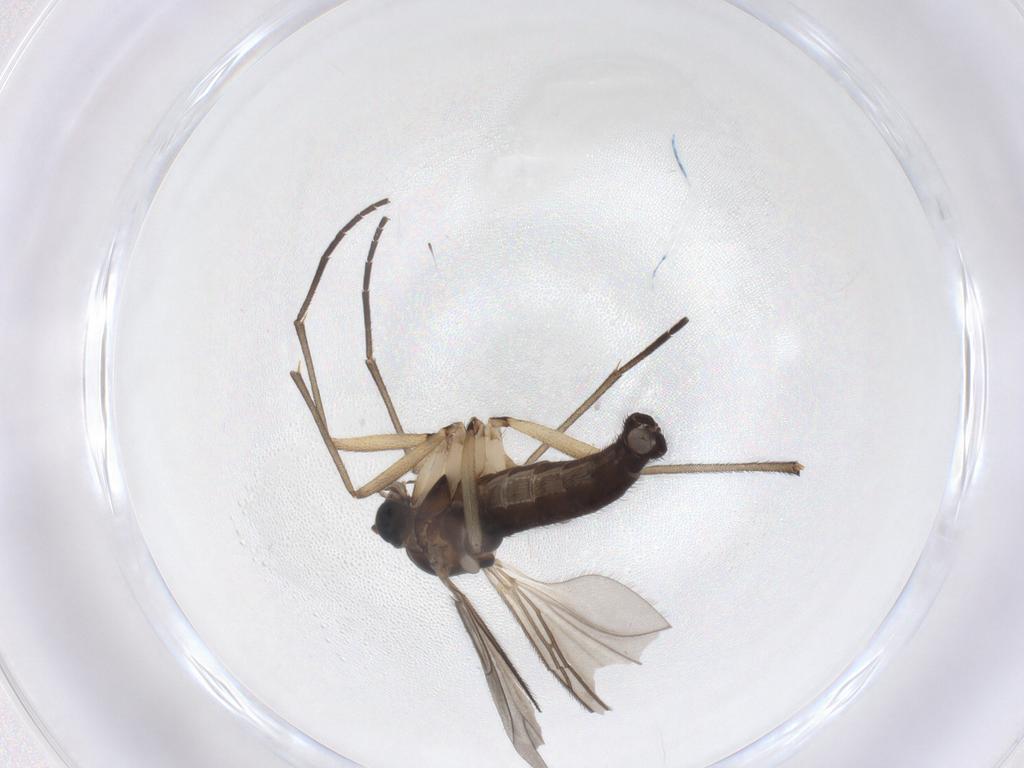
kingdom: Animalia
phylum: Arthropoda
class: Insecta
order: Diptera
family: Sciaridae
